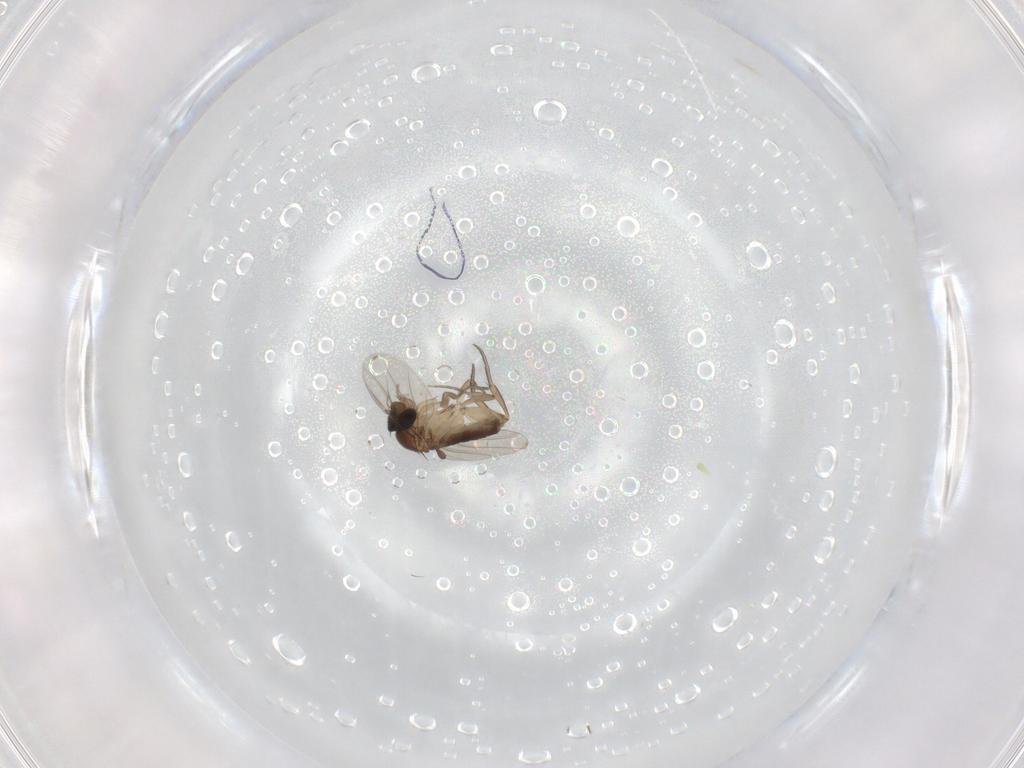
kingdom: Animalia
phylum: Arthropoda
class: Insecta
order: Diptera
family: Phoridae
